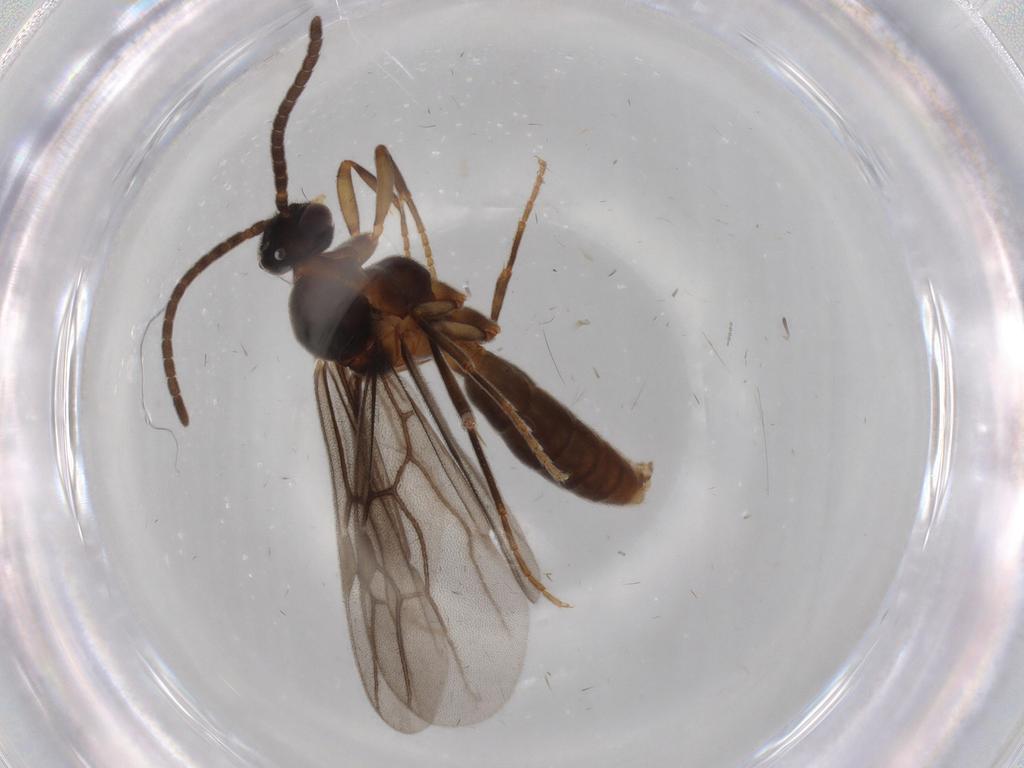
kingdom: Animalia
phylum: Arthropoda
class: Insecta
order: Hymenoptera
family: Formicidae
